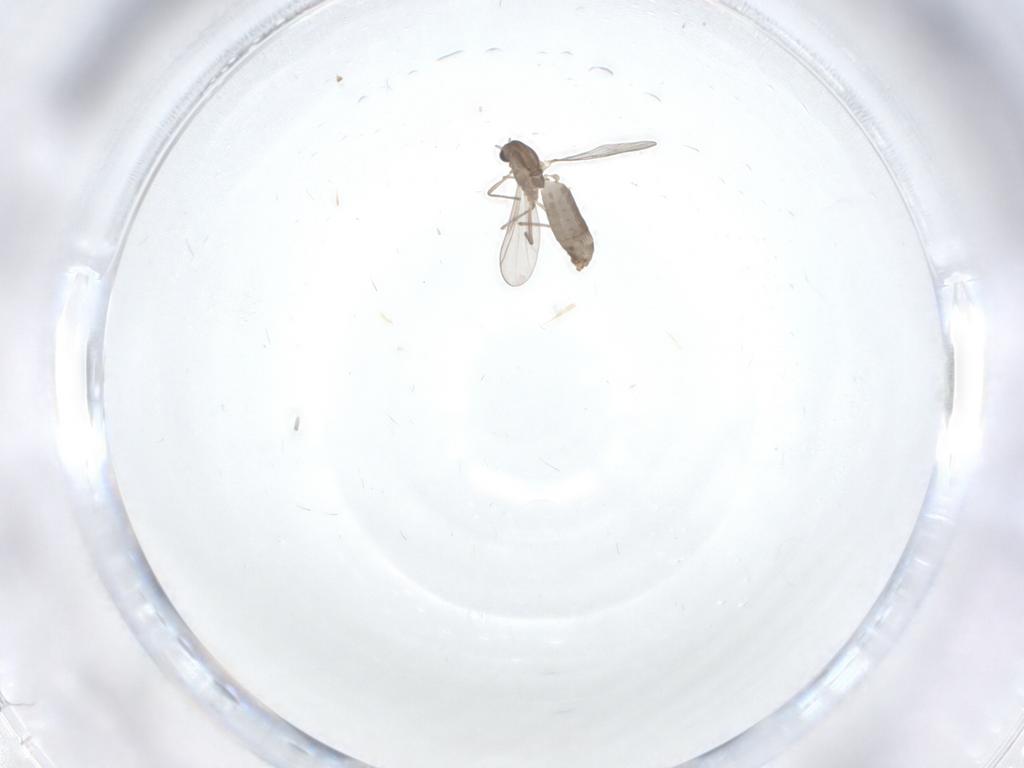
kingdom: Animalia
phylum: Arthropoda
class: Insecta
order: Diptera
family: Chironomidae
